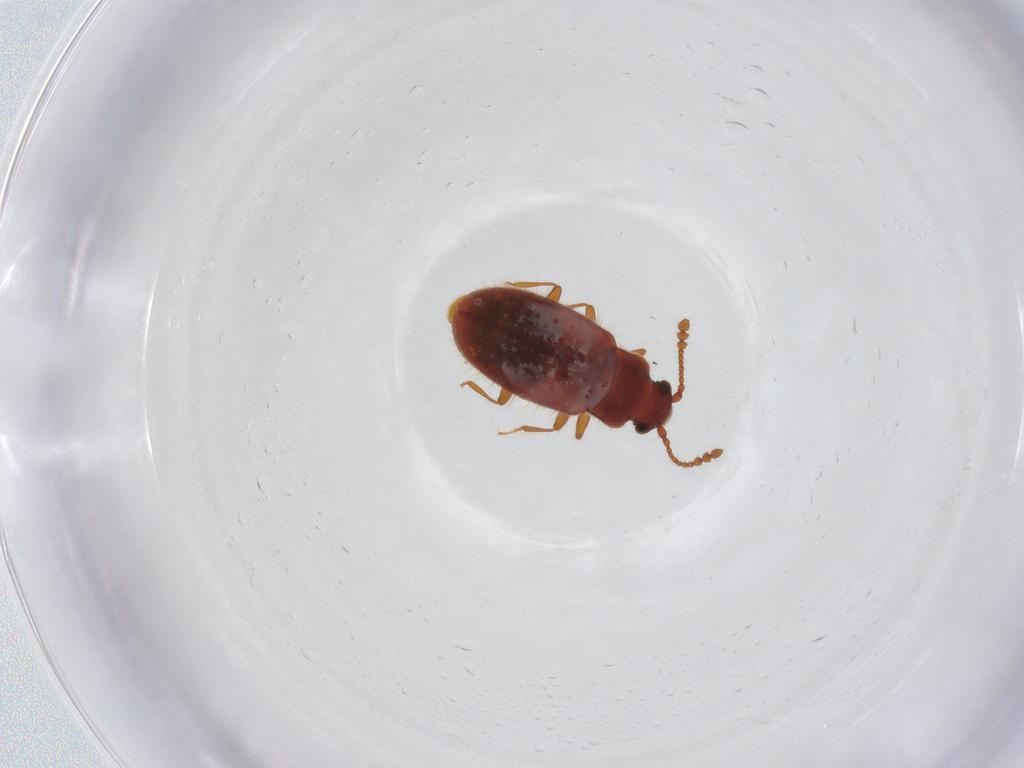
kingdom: Animalia
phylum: Arthropoda
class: Insecta
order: Coleoptera
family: Cryptophagidae
